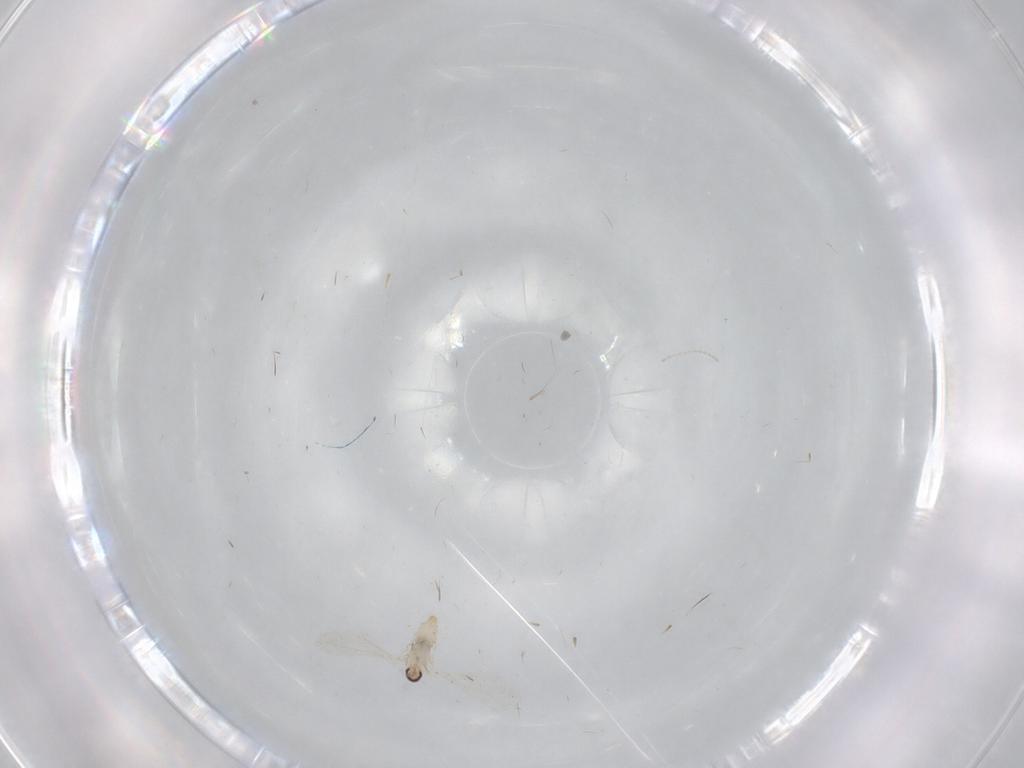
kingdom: Animalia
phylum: Arthropoda
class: Insecta
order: Diptera
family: Cecidomyiidae
